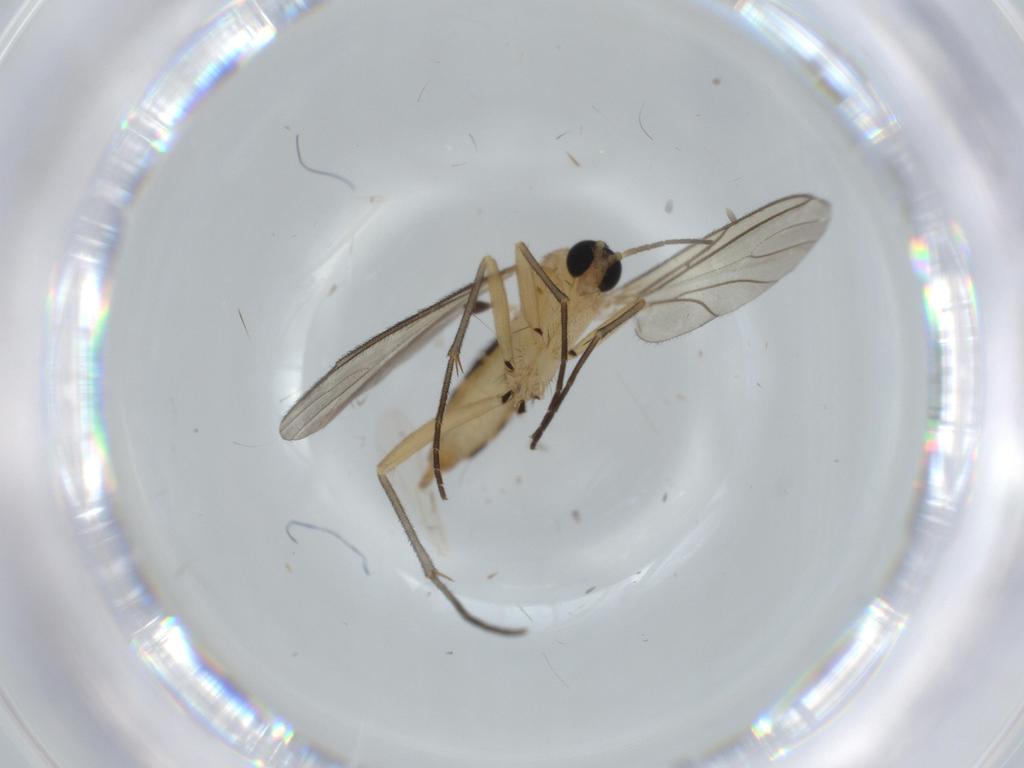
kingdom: Animalia
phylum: Arthropoda
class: Insecta
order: Diptera
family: Sciaridae
